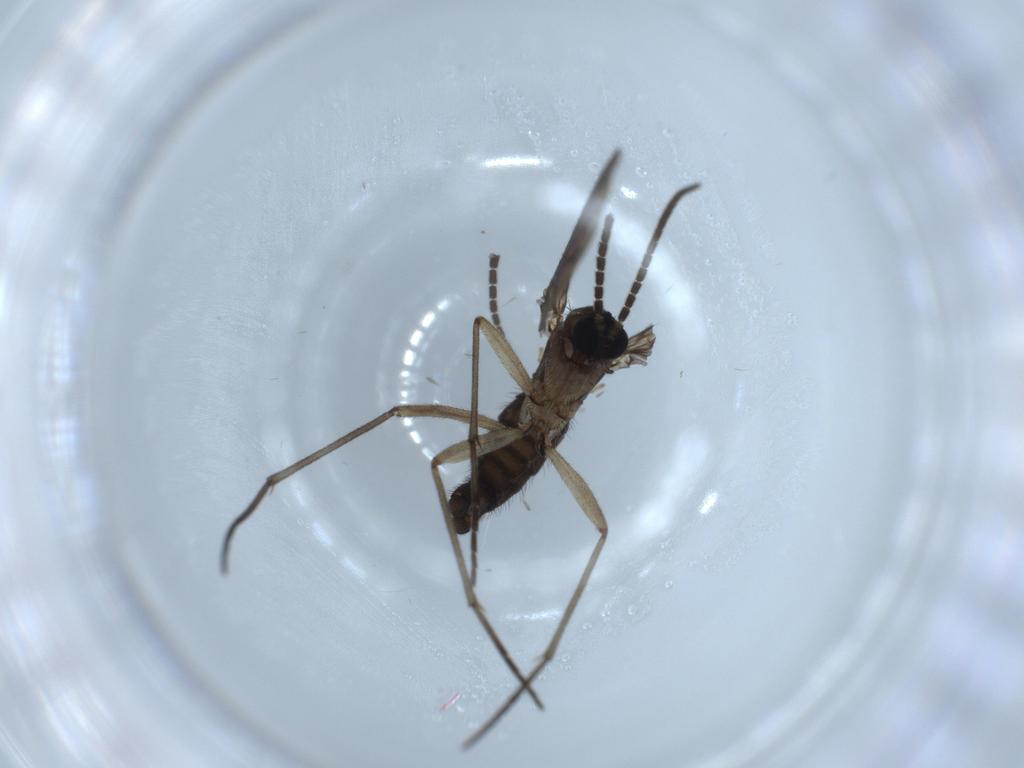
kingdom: Animalia
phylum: Arthropoda
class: Insecta
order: Diptera
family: Sciaridae
